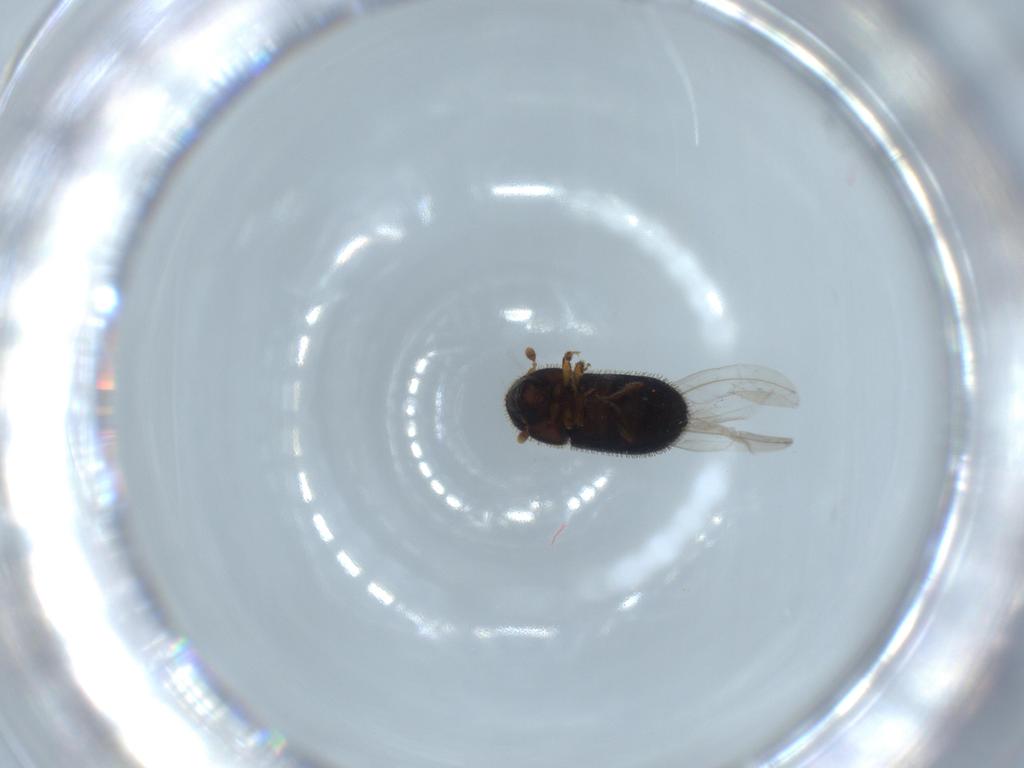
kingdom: Animalia
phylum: Arthropoda
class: Insecta
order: Coleoptera
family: Curculionidae
